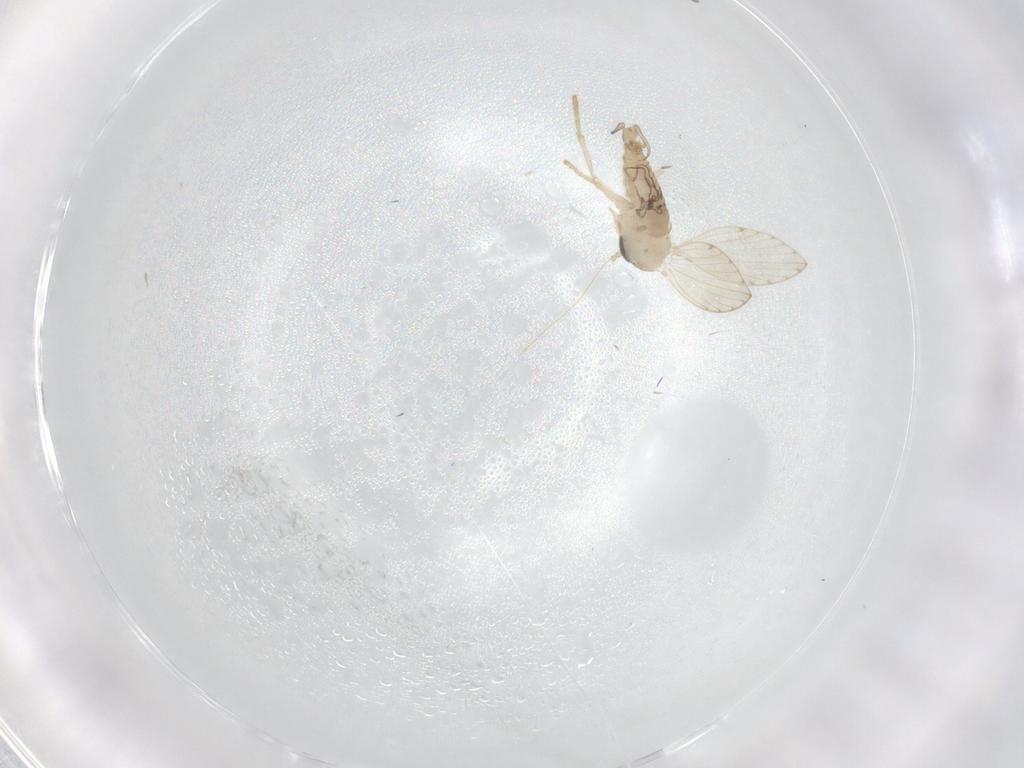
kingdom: Animalia
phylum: Arthropoda
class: Insecta
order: Diptera
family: Psychodidae
